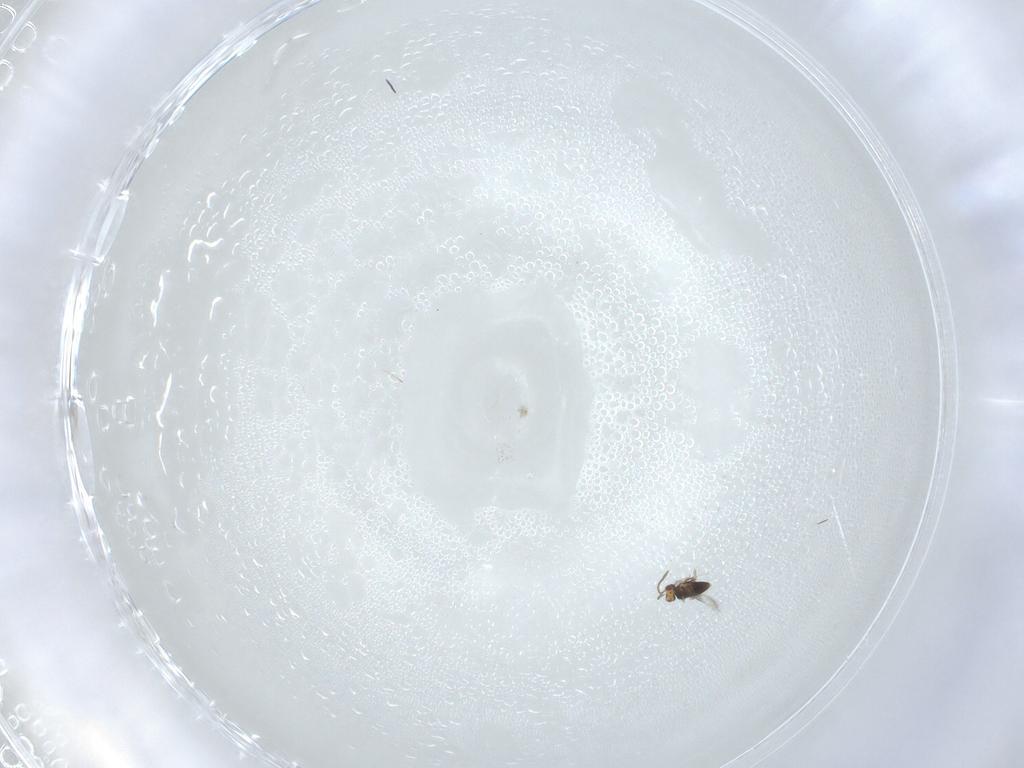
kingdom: Animalia
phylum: Arthropoda
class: Insecta
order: Hymenoptera
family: Azotidae
